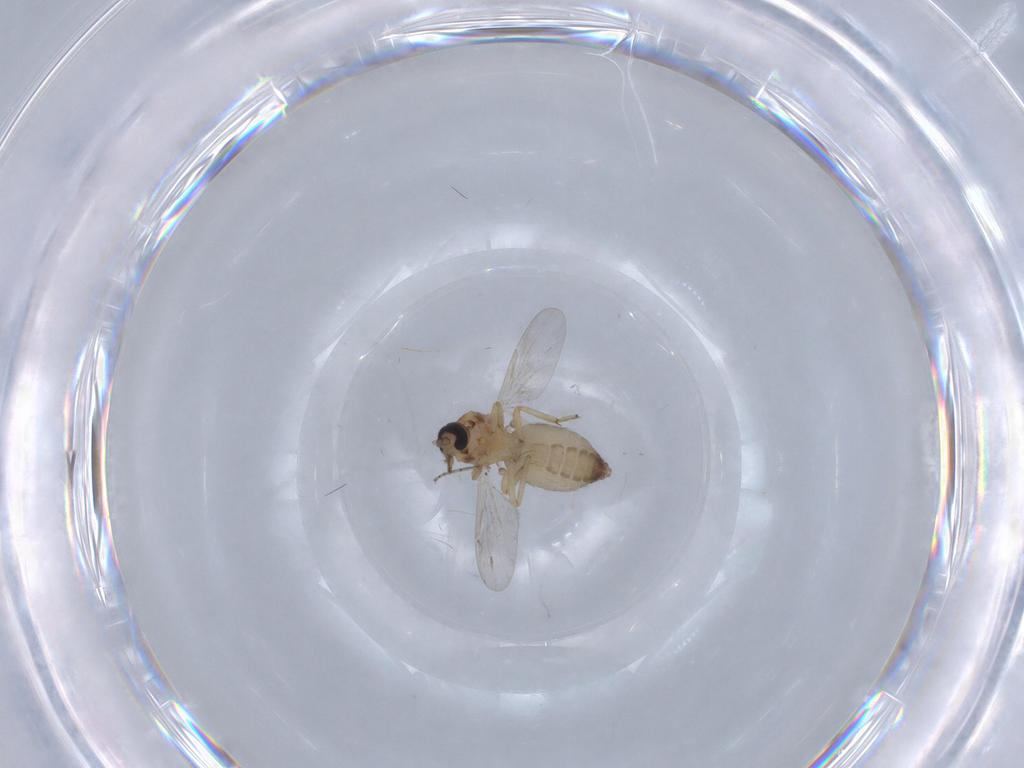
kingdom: Animalia
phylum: Arthropoda
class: Insecta
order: Diptera
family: Ceratopogonidae
